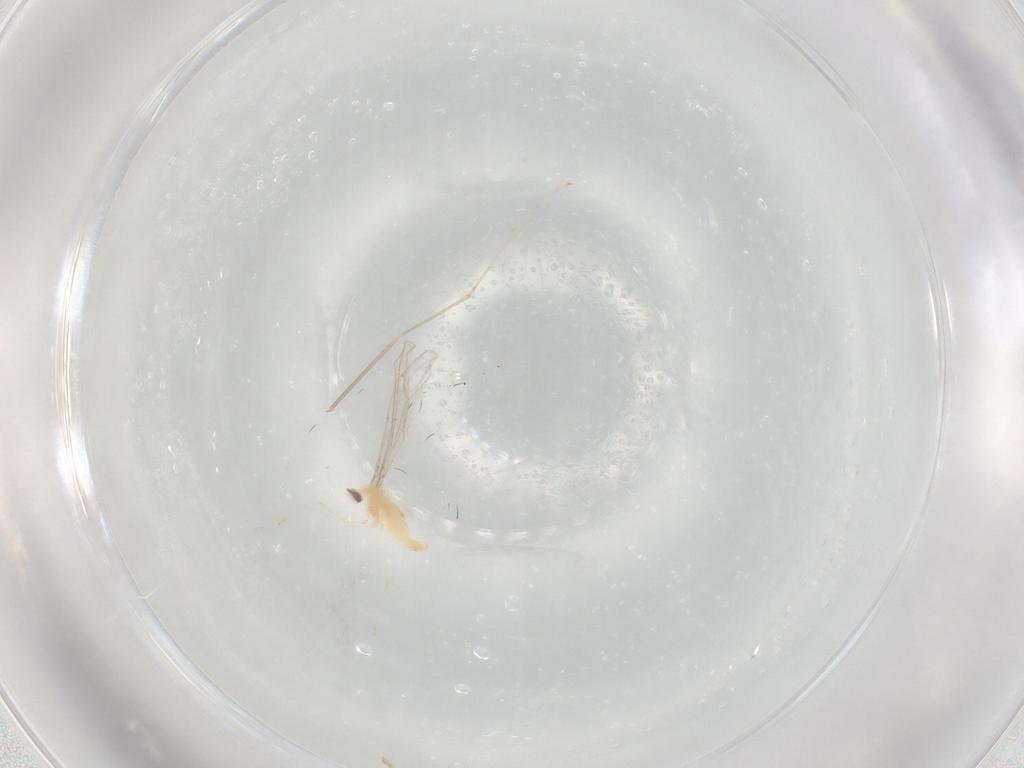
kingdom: Animalia
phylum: Arthropoda
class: Insecta
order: Diptera
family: Cecidomyiidae
